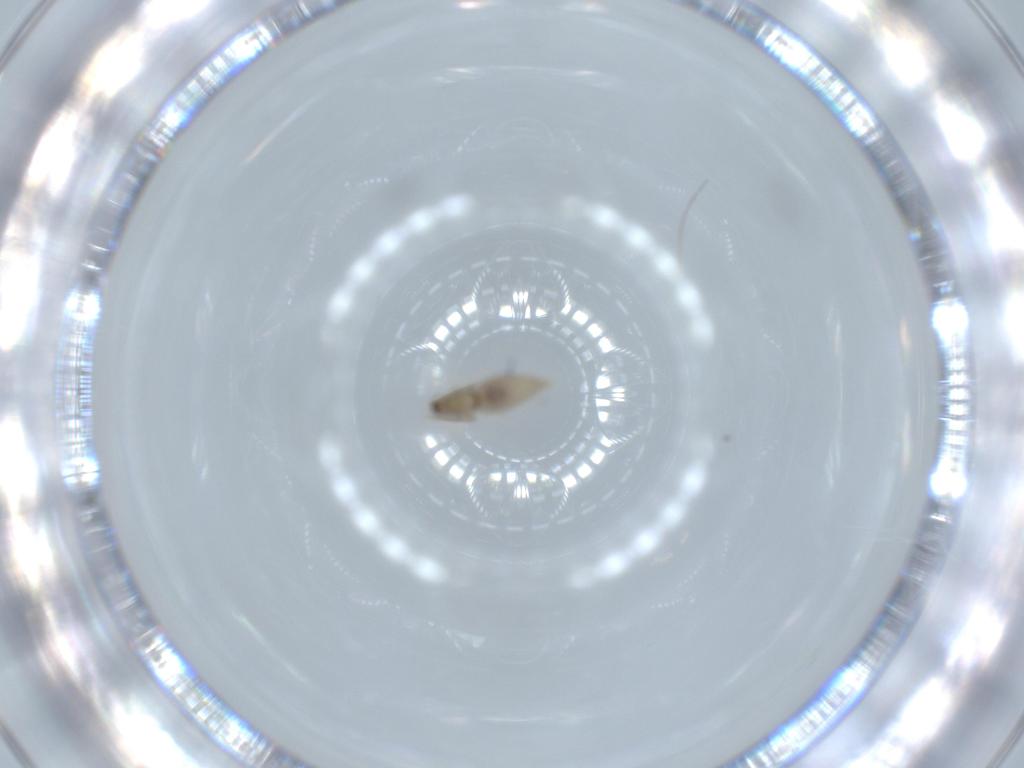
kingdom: Animalia
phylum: Arthropoda
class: Insecta
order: Diptera
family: Cecidomyiidae
